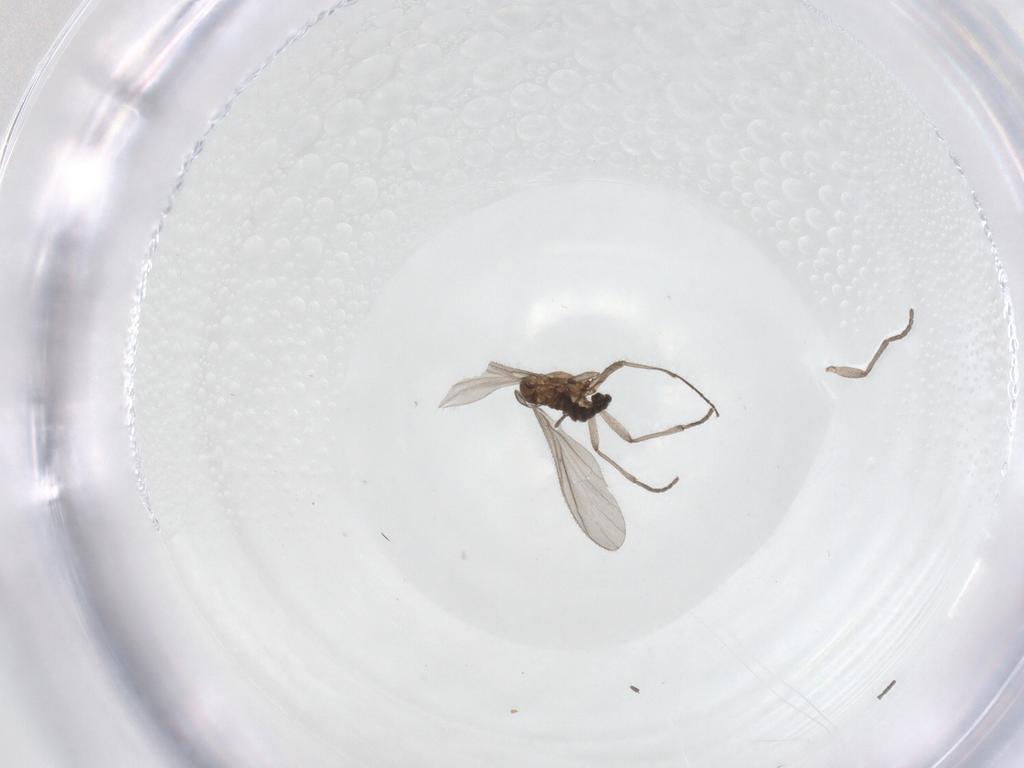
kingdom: Animalia
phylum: Arthropoda
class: Insecta
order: Diptera
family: Sciaridae
